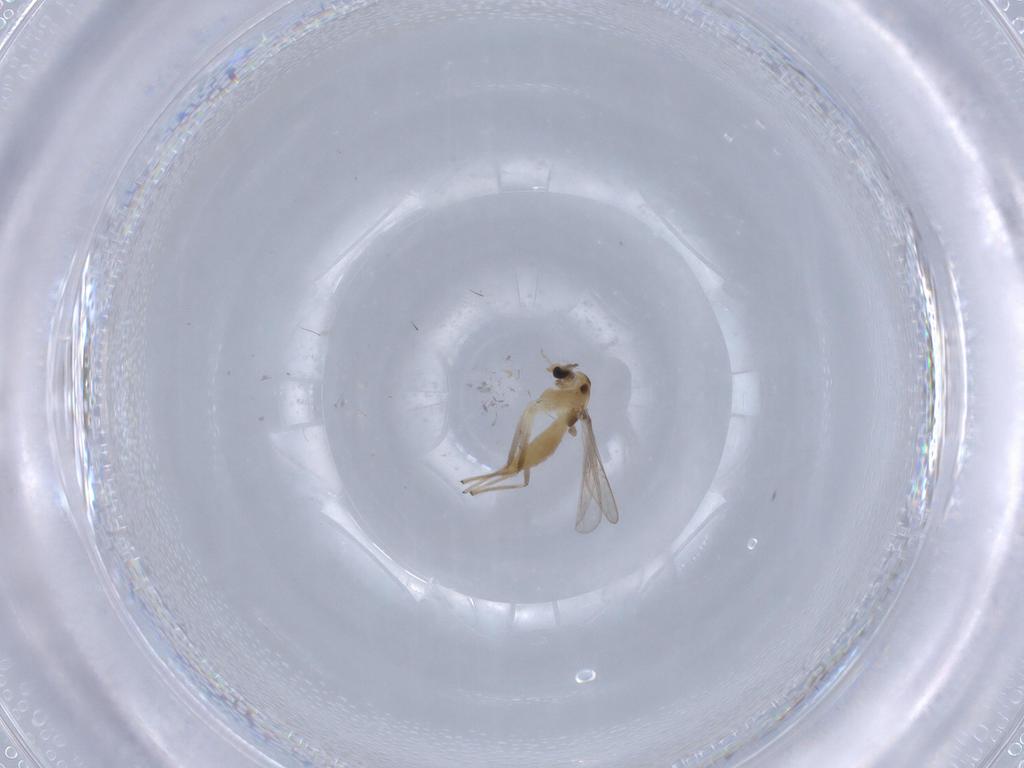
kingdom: Animalia
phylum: Arthropoda
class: Insecta
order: Diptera
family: Chironomidae
